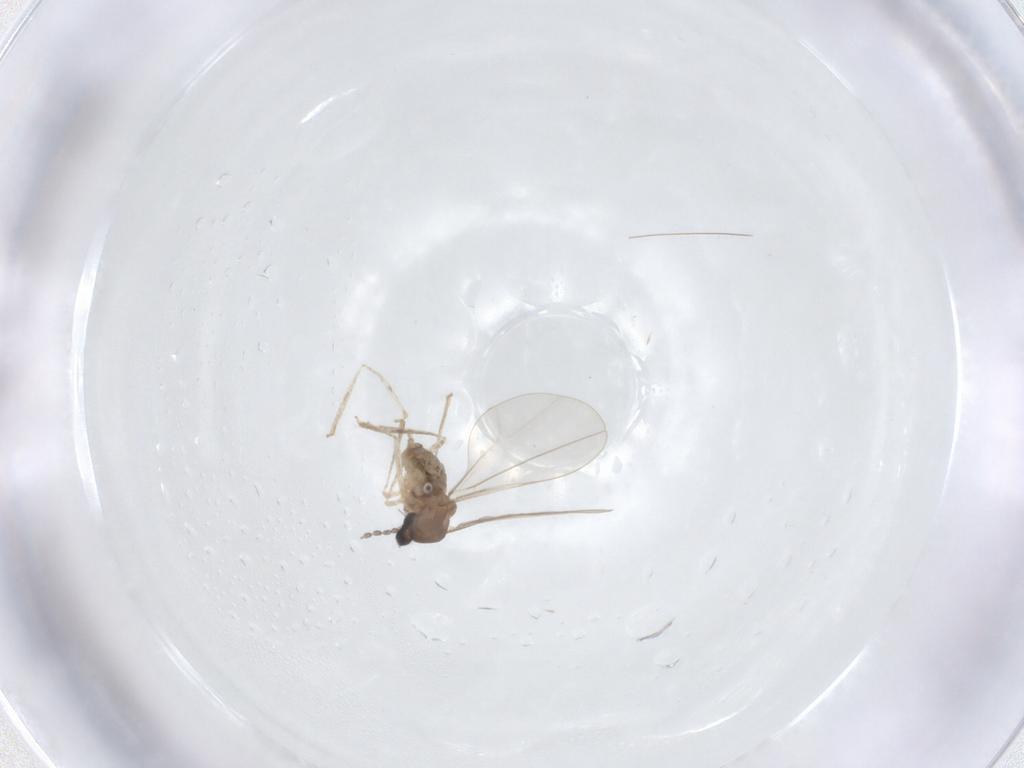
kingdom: Animalia
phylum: Arthropoda
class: Insecta
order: Diptera
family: Cecidomyiidae
